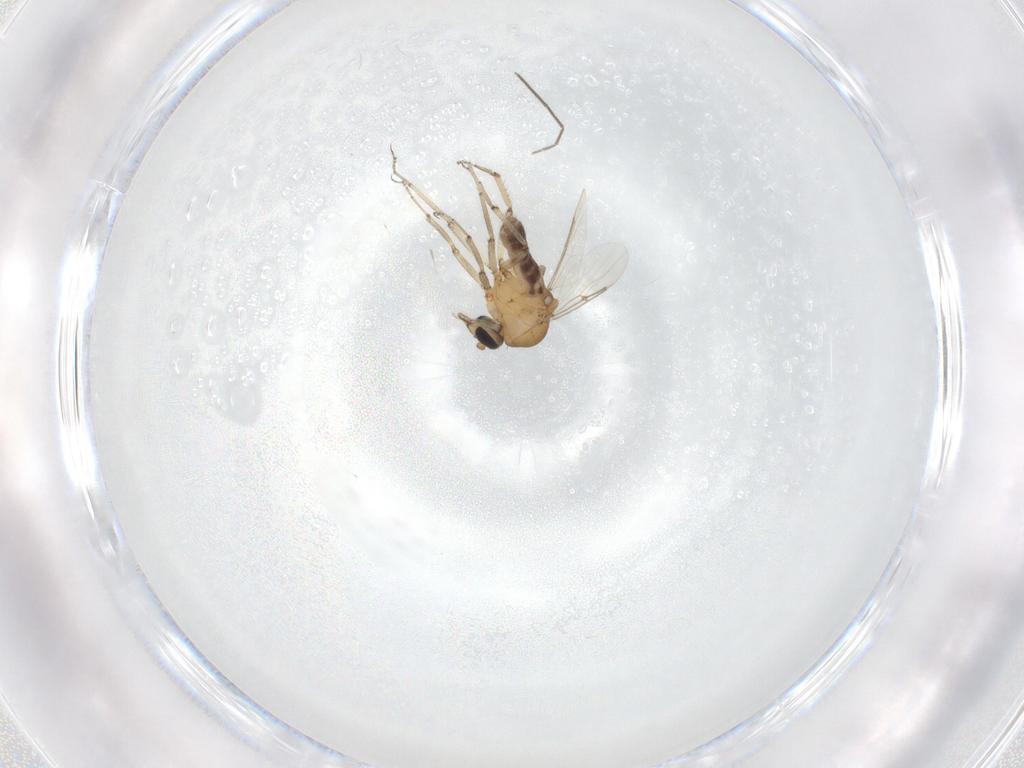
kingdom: Animalia
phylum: Arthropoda
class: Insecta
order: Diptera
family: Ceratopogonidae
